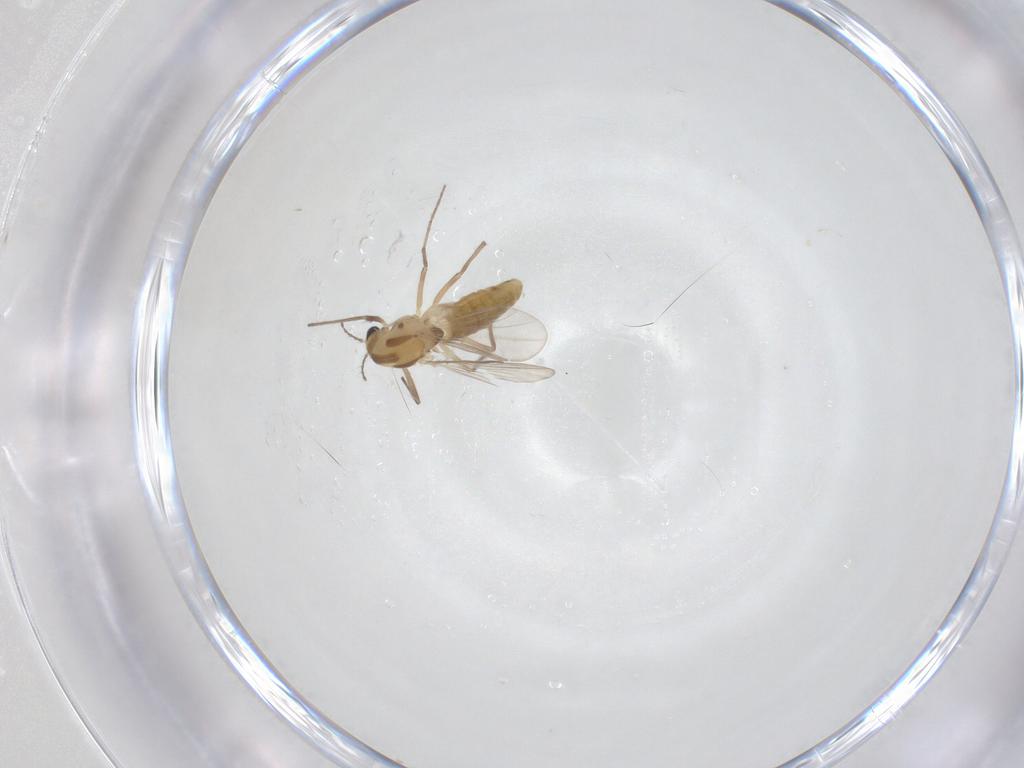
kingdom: Animalia
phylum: Arthropoda
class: Insecta
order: Diptera
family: Chironomidae
